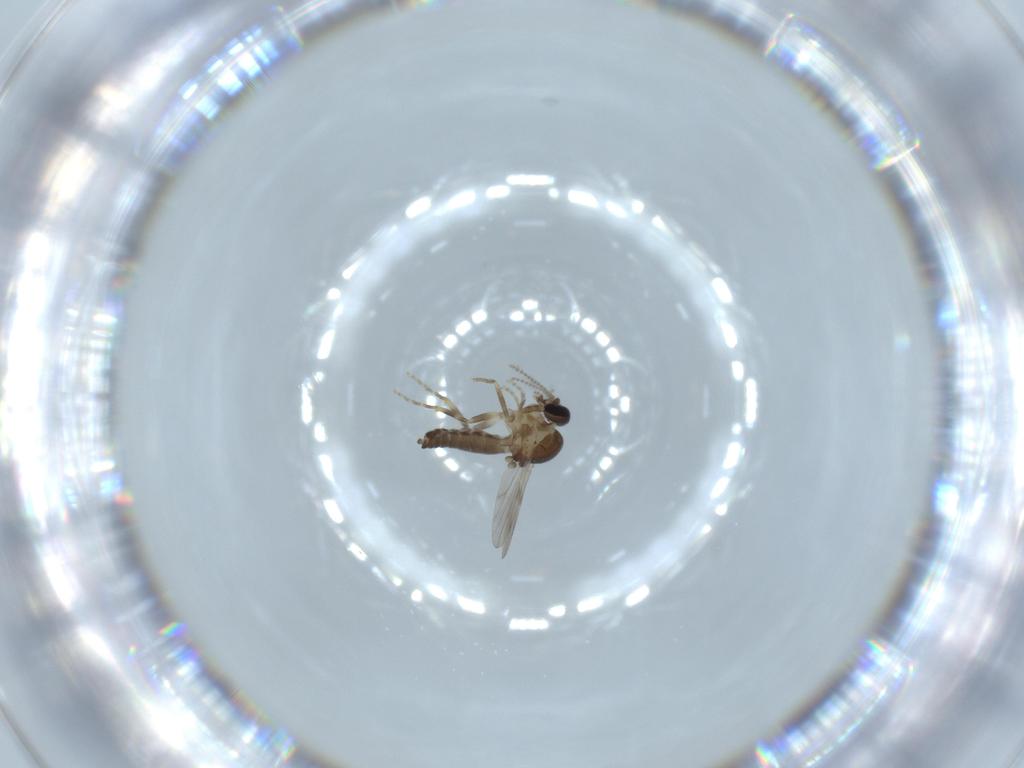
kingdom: Animalia
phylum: Arthropoda
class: Insecta
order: Diptera
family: Ceratopogonidae
